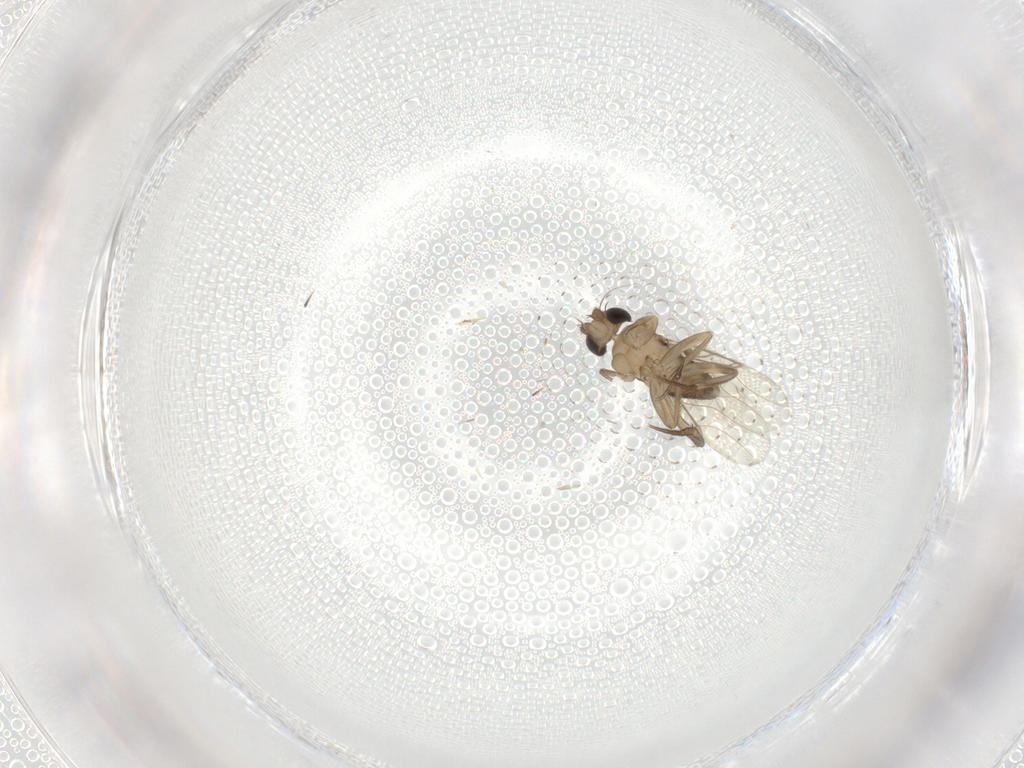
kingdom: Animalia
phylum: Arthropoda
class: Insecta
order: Diptera
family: Phoridae
